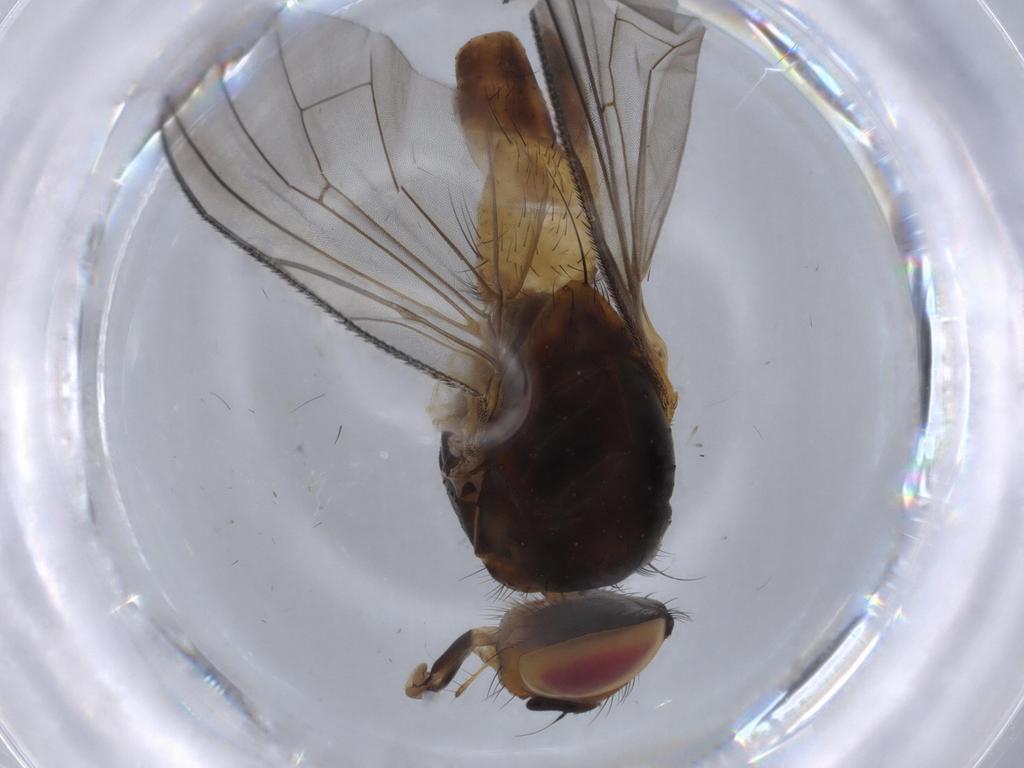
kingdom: Animalia
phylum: Arthropoda
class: Insecta
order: Diptera
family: Anthomyiidae
